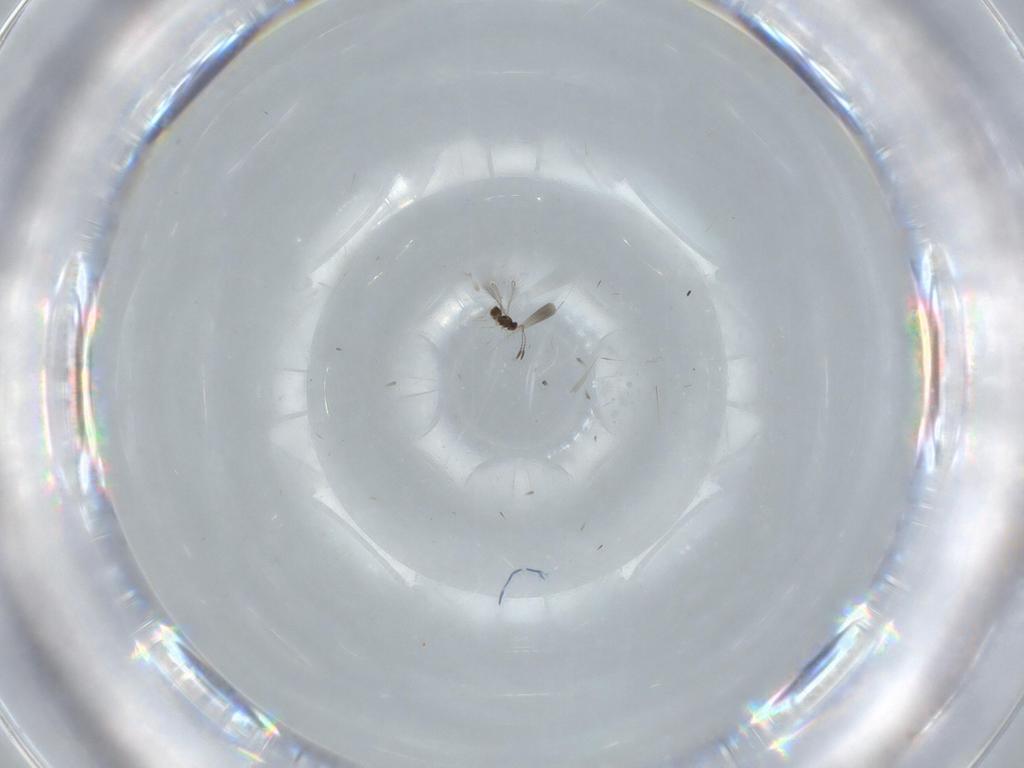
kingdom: Animalia
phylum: Arthropoda
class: Insecta
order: Hymenoptera
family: Mymaridae
